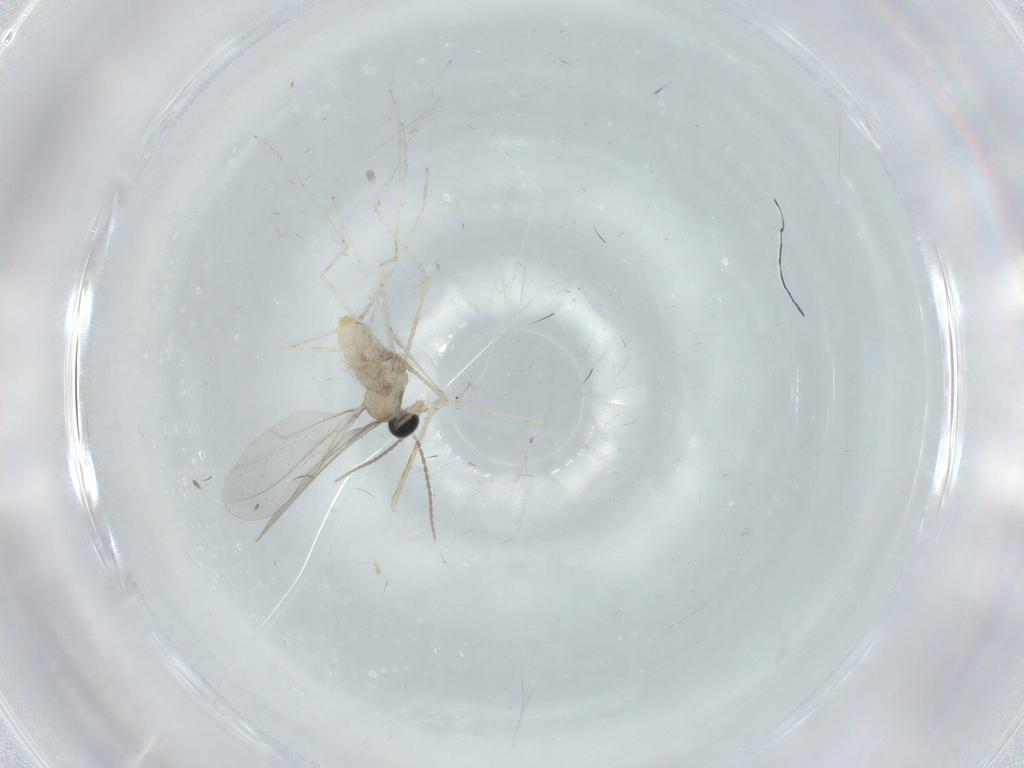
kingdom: Animalia
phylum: Arthropoda
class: Insecta
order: Diptera
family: Cecidomyiidae
